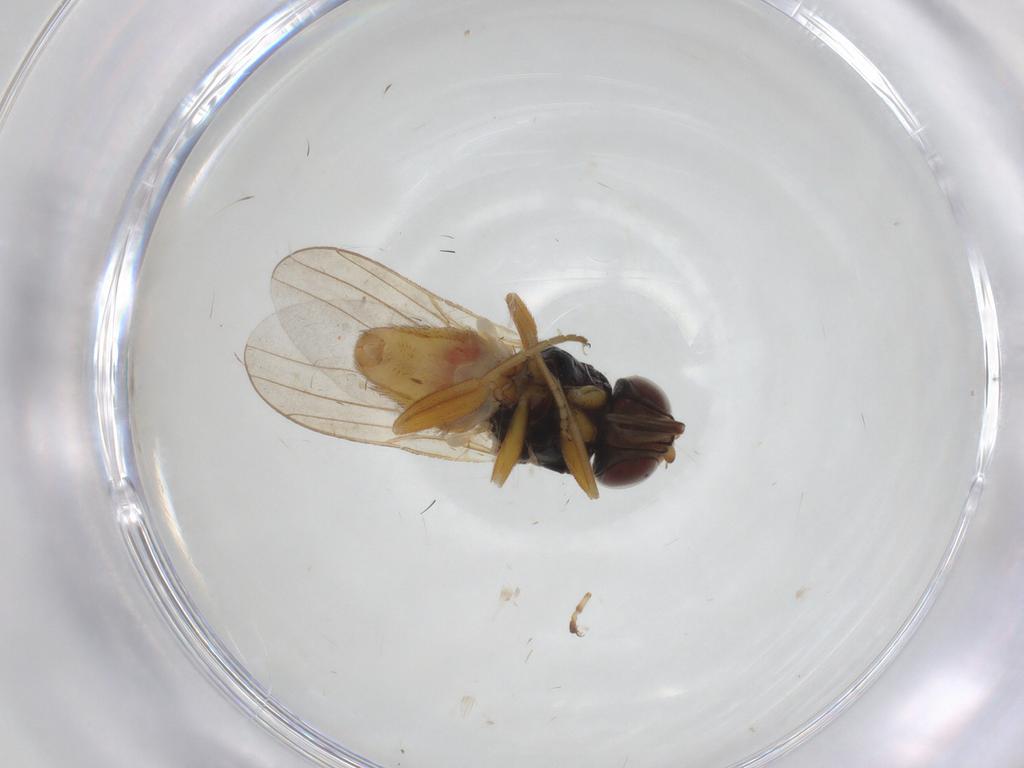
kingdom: Animalia
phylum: Arthropoda
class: Insecta
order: Diptera
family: Chloropidae
